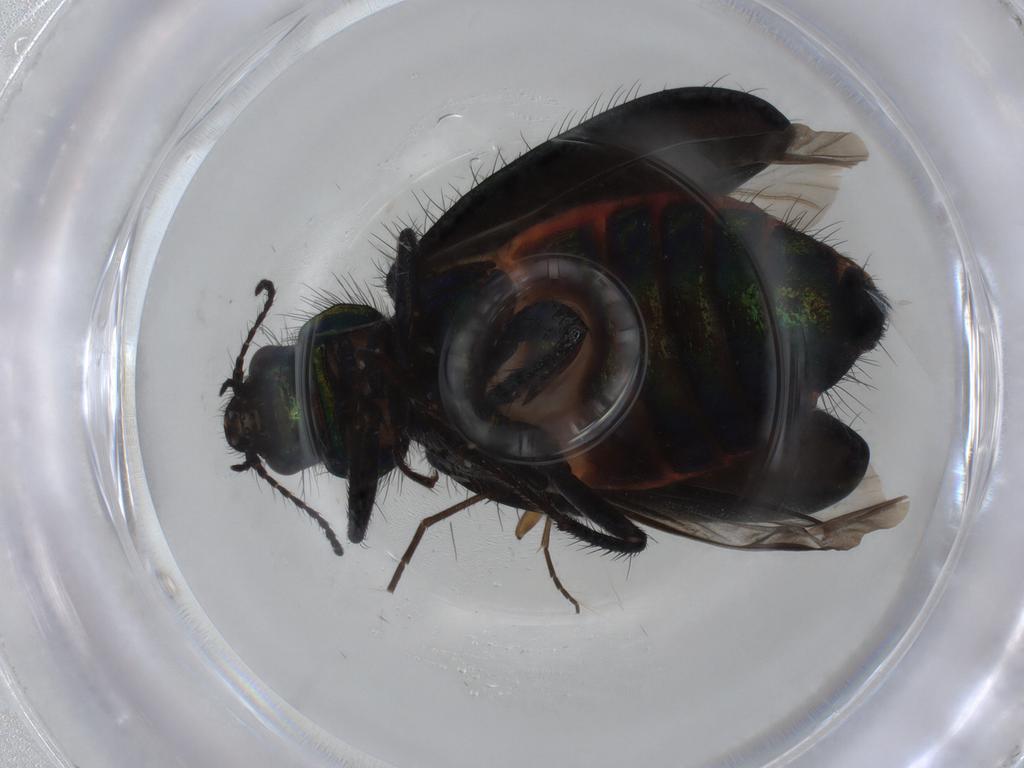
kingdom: Animalia
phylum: Arthropoda
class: Insecta
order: Coleoptera
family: Melyridae
